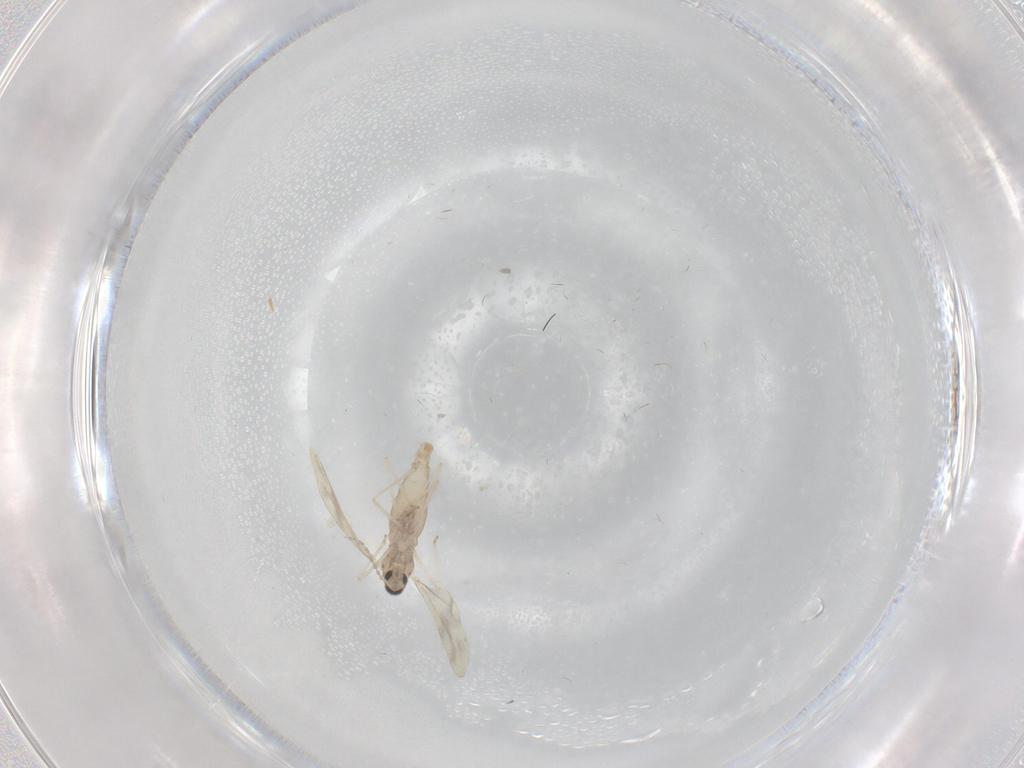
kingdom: Animalia
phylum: Arthropoda
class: Insecta
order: Diptera
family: Cecidomyiidae
